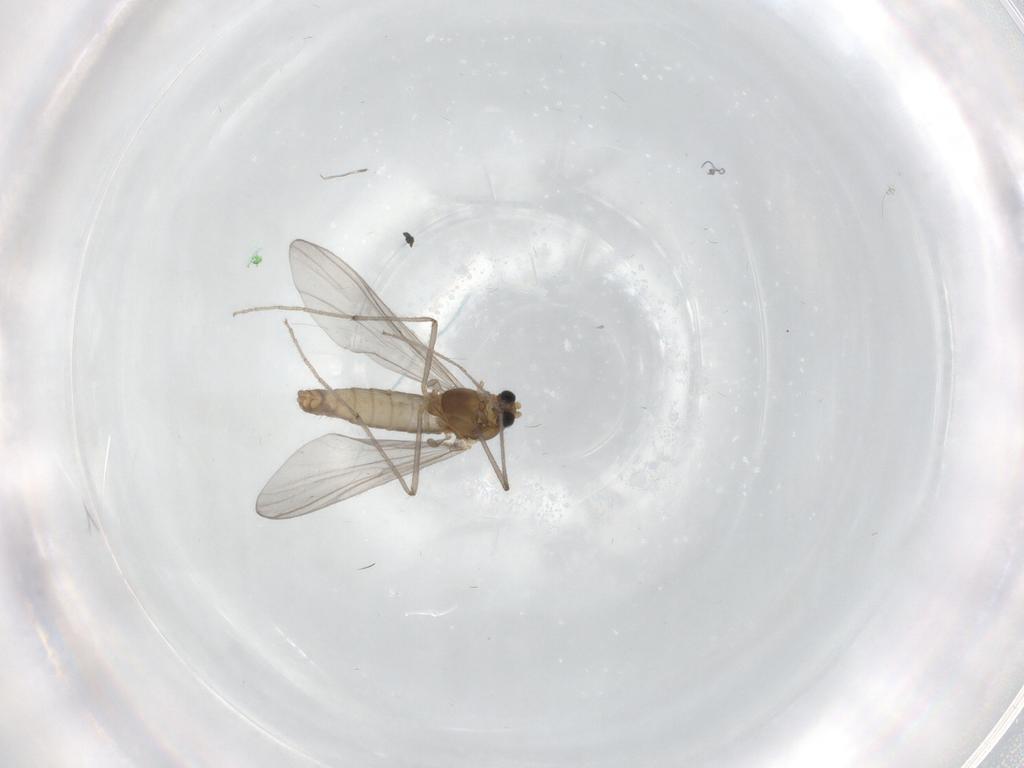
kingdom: Animalia
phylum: Arthropoda
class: Insecta
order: Diptera
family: Chironomidae
